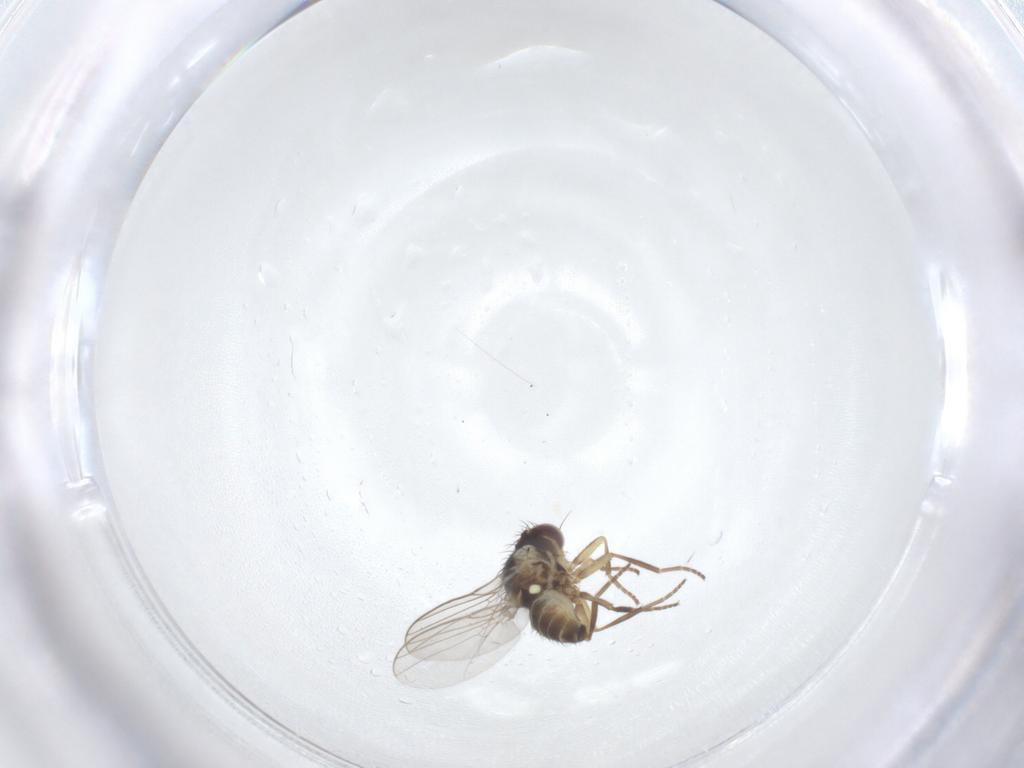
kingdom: Animalia
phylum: Arthropoda
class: Insecta
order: Diptera
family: Agromyzidae
